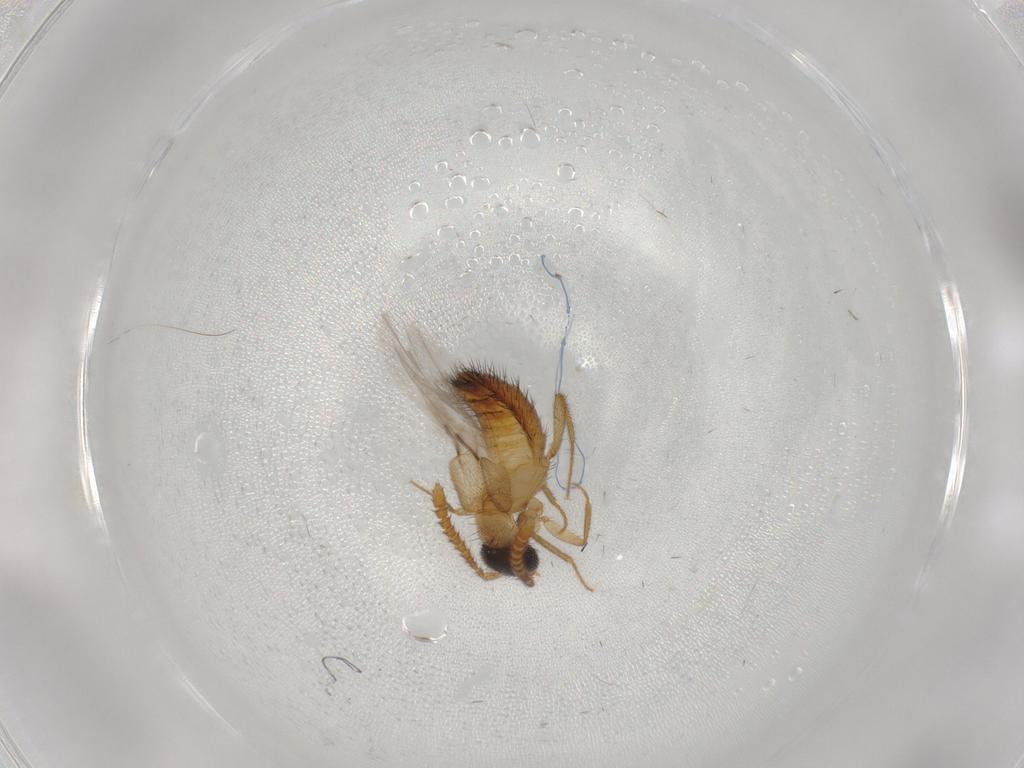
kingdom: Animalia
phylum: Arthropoda
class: Insecta
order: Coleoptera
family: Staphylinidae
